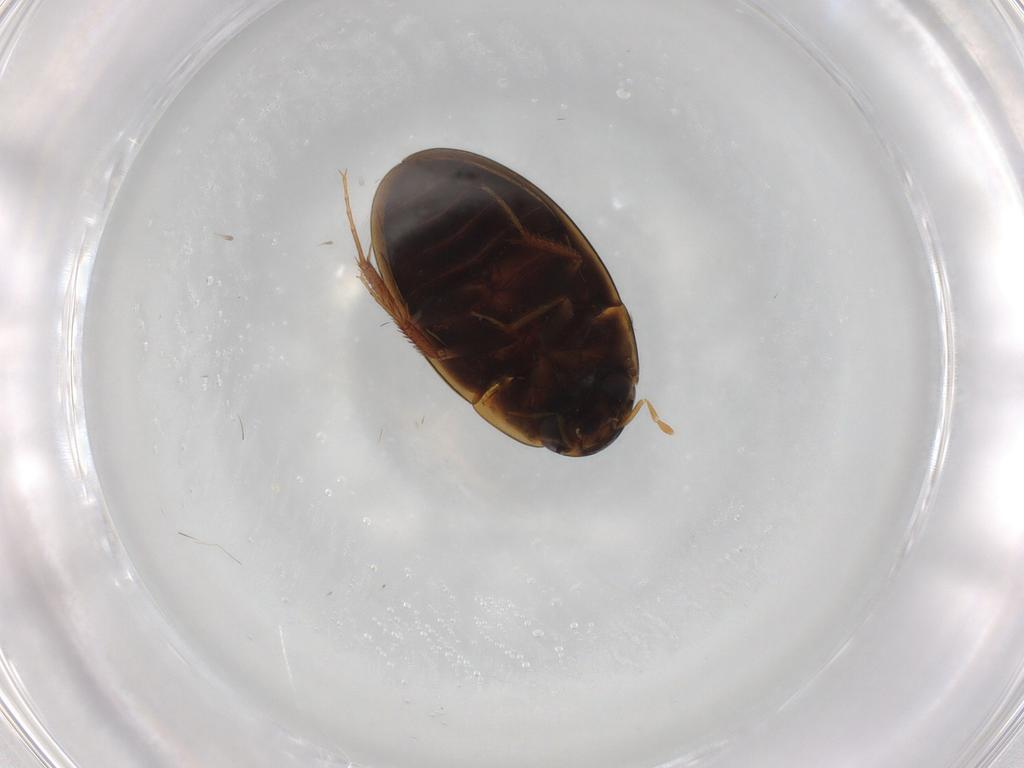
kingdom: Animalia
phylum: Arthropoda
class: Insecta
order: Coleoptera
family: Hydrophilidae
